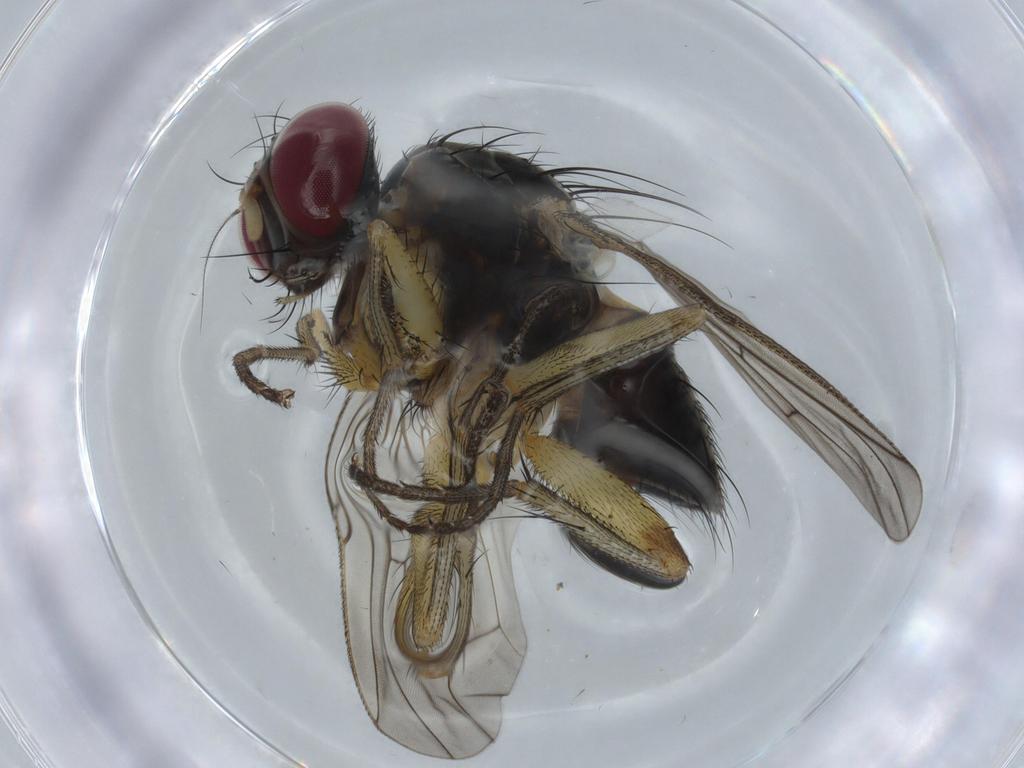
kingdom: Animalia
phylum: Arthropoda
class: Insecta
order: Diptera
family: Muscidae
